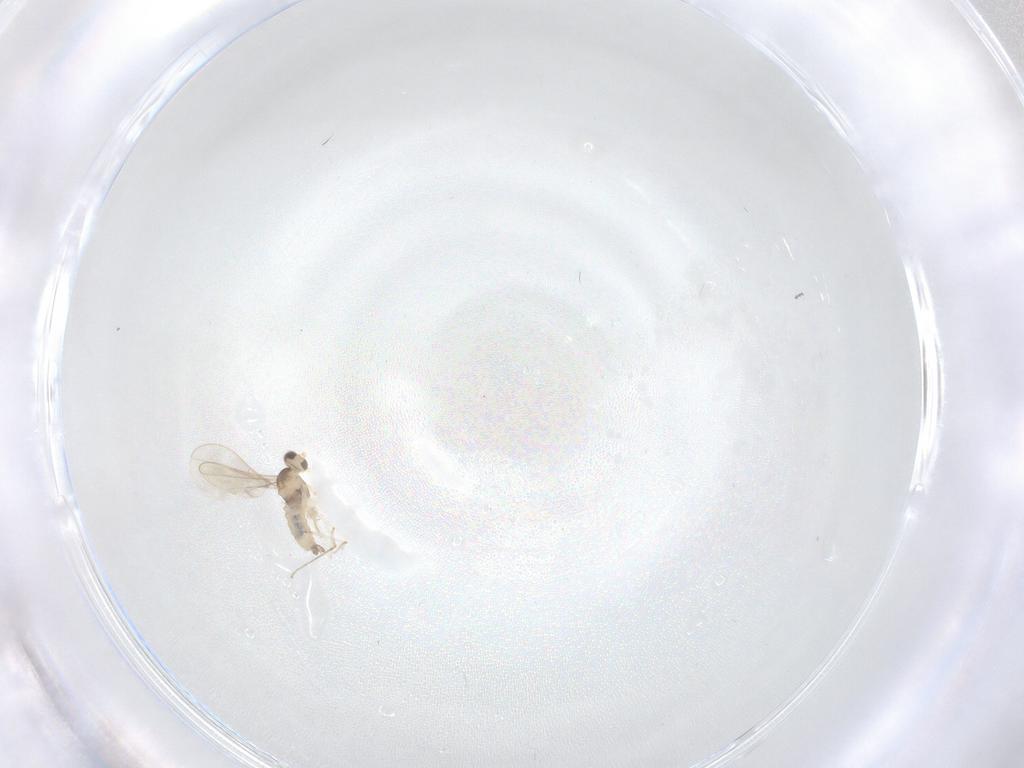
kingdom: Animalia
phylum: Arthropoda
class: Insecta
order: Diptera
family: Cecidomyiidae
